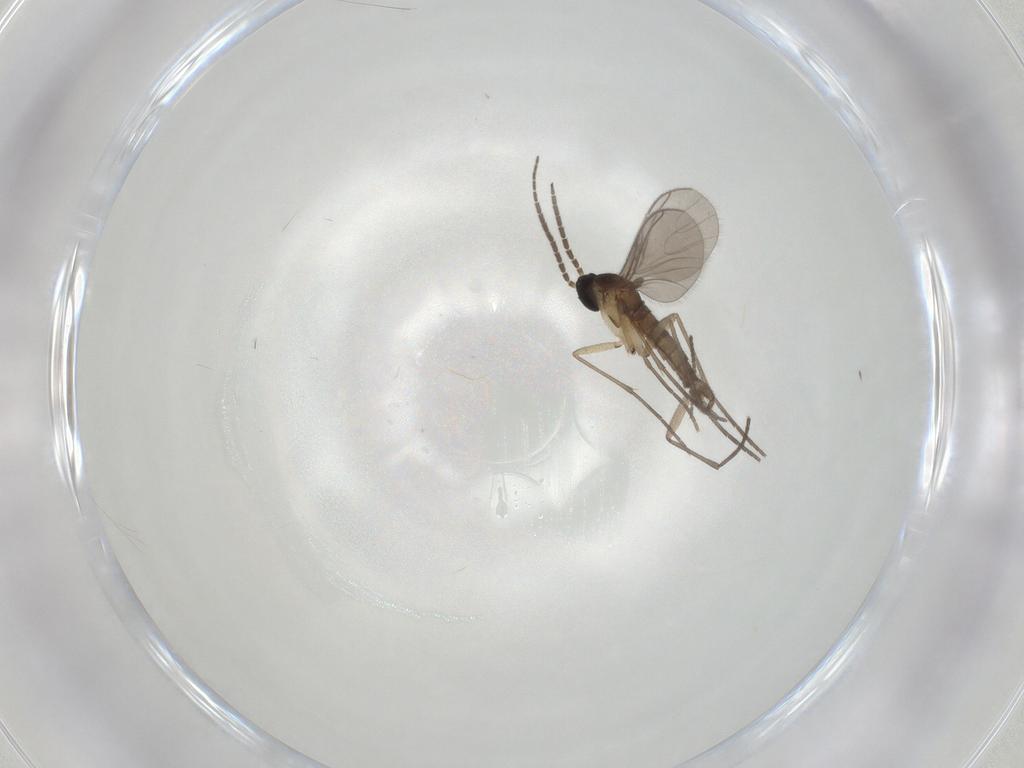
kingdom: Animalia
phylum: Arthropoda
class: Insecta
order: Diptera
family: Sciaridae
